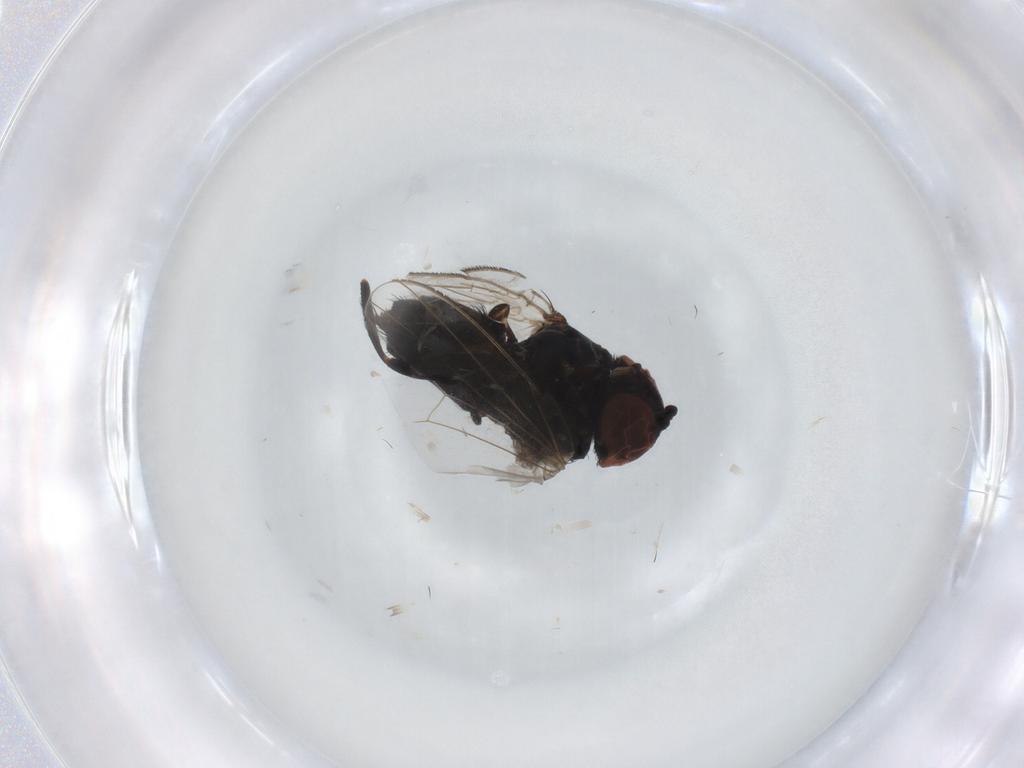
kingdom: Animalia
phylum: Arthropoda
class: Insecta
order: Diptera
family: Milichiidae
